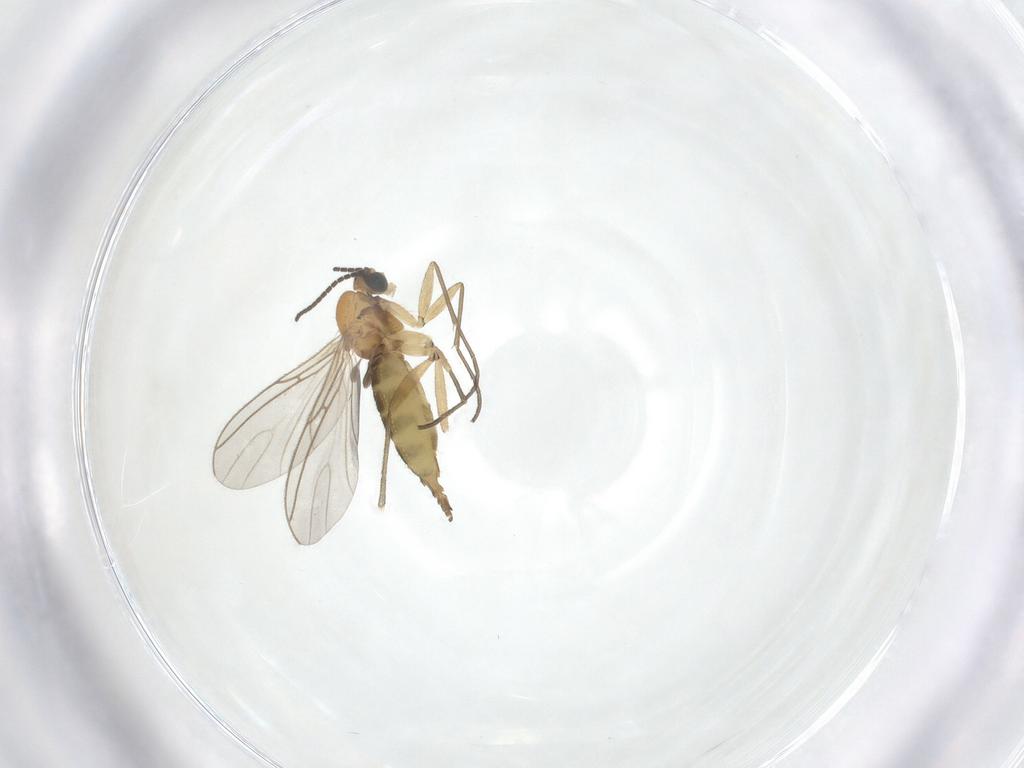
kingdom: Animalia
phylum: Arthropoda
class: Insecta
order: Diptera
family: Sciaridae
